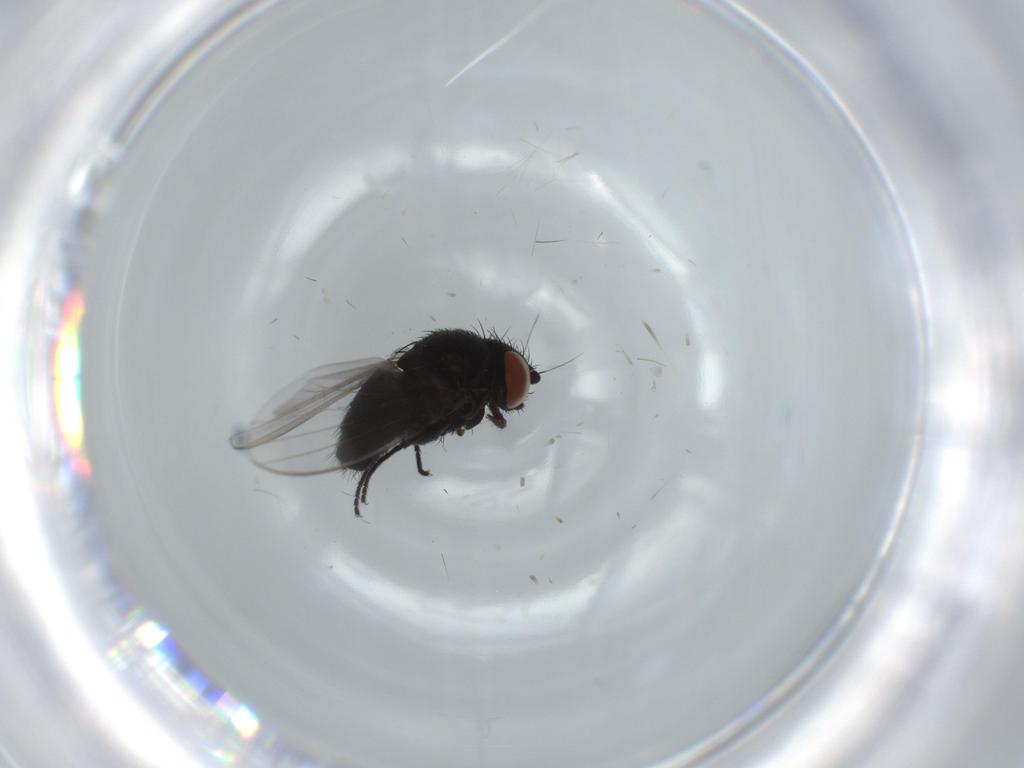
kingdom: Animalia
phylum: Arthropoda
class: Insecta
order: Diptera
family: Milichiidae
